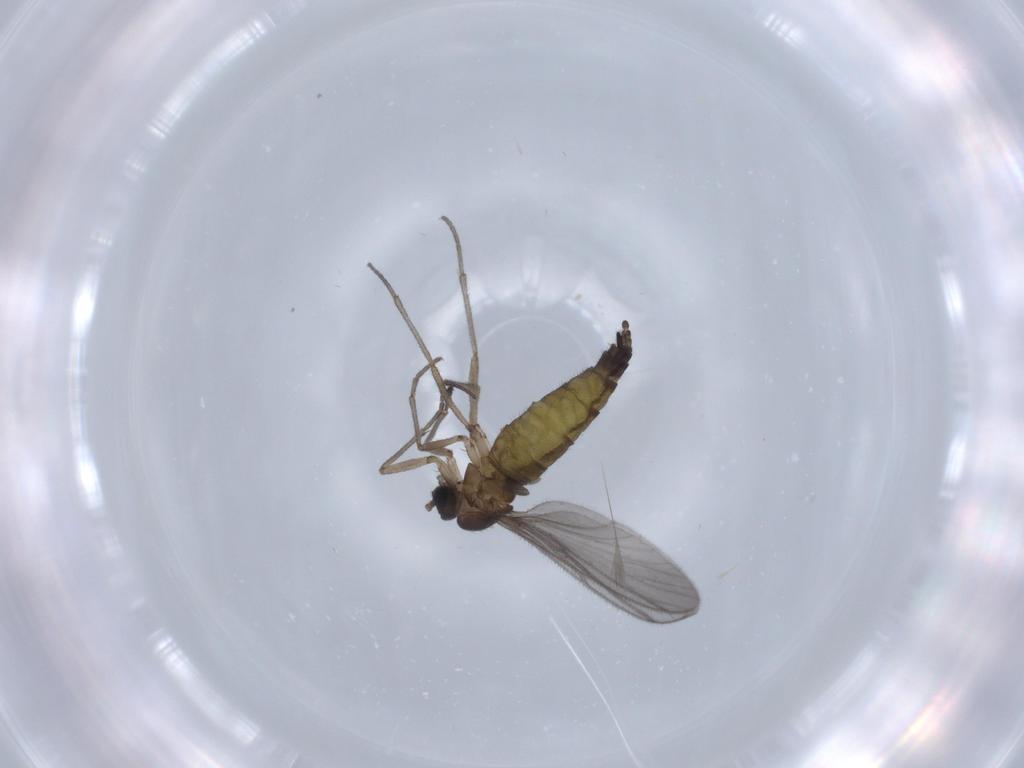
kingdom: Animalia
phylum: Arthropoda
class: Insecta
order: Diptera
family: Sciaridae
